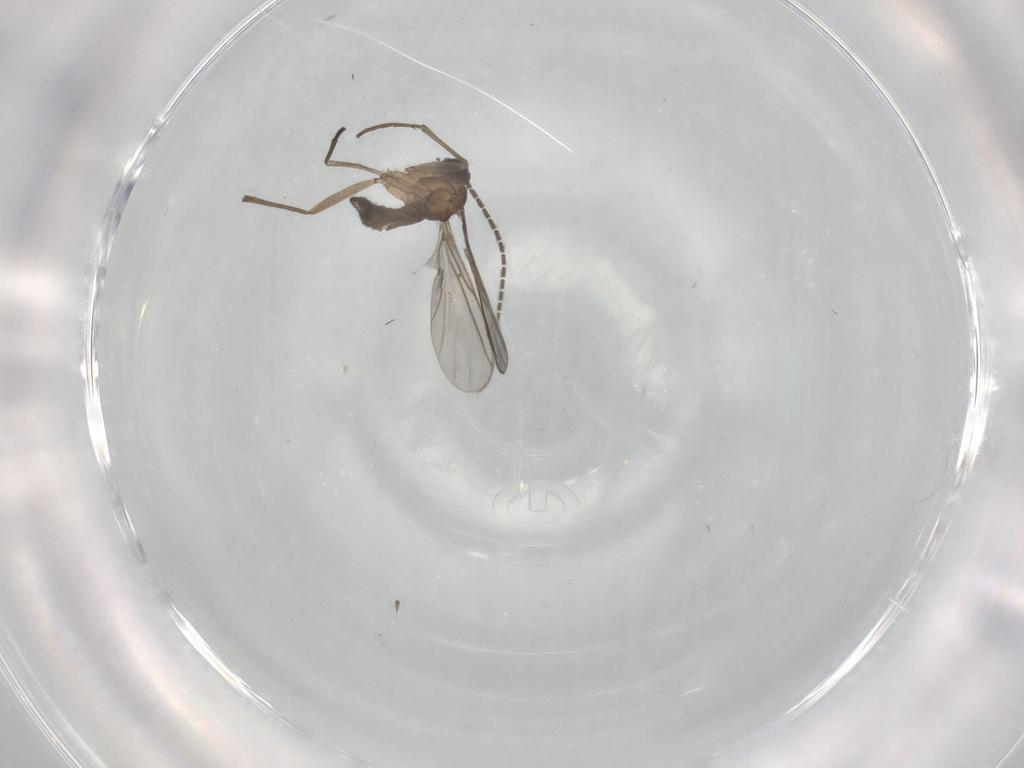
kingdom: Animalia
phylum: Arthropoda
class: Insecta
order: Diptera
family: Sciaridae
